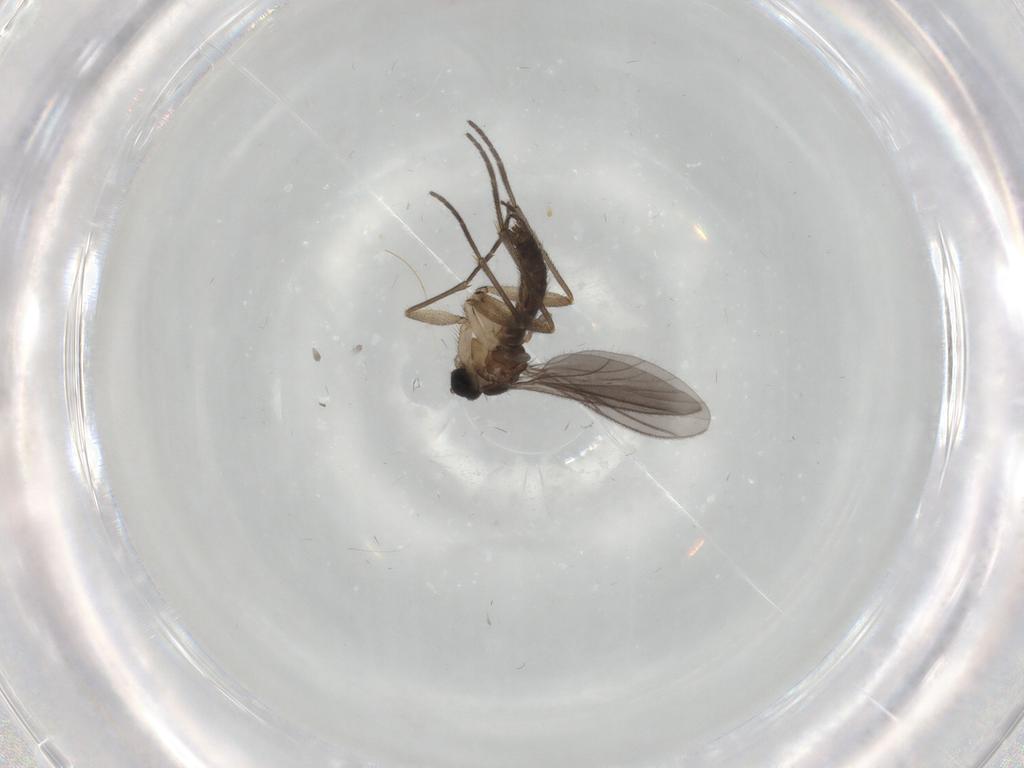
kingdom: Animalia
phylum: Arthropoda
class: Insecta
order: Diptera
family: Sciaridae
